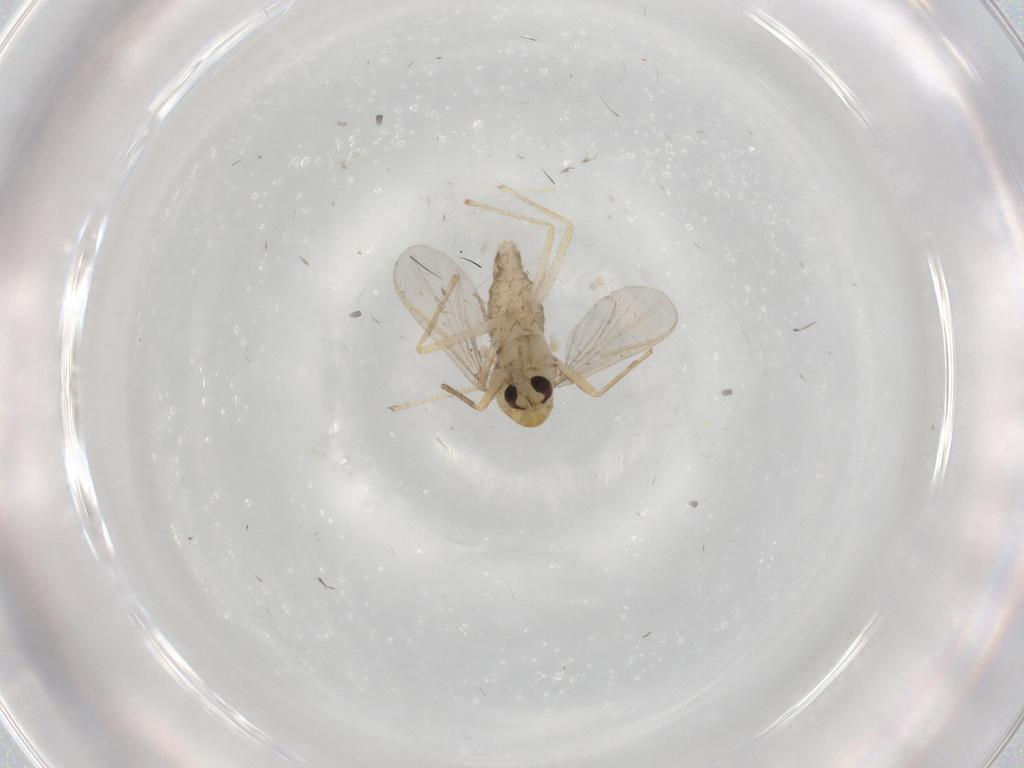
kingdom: Animalia
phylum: Arthropoda
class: Insecta
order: Diptera
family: Chironomidae
